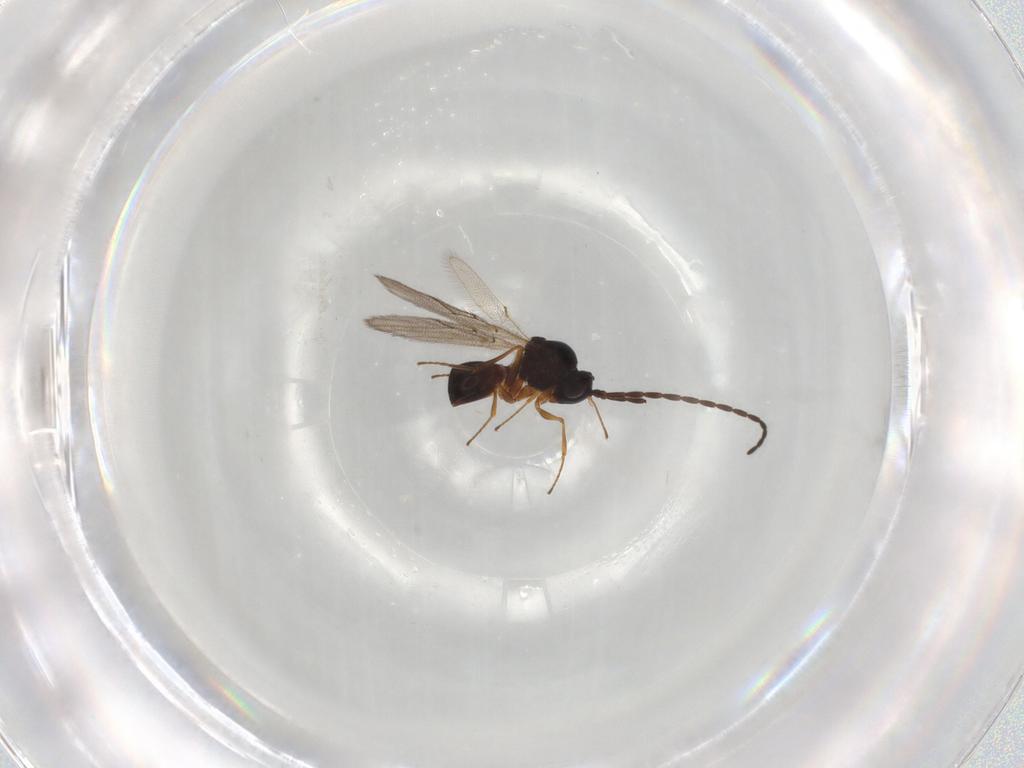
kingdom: Animalia
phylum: Arthropoda
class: Insecta
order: Hymenoptera
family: Figitidae
